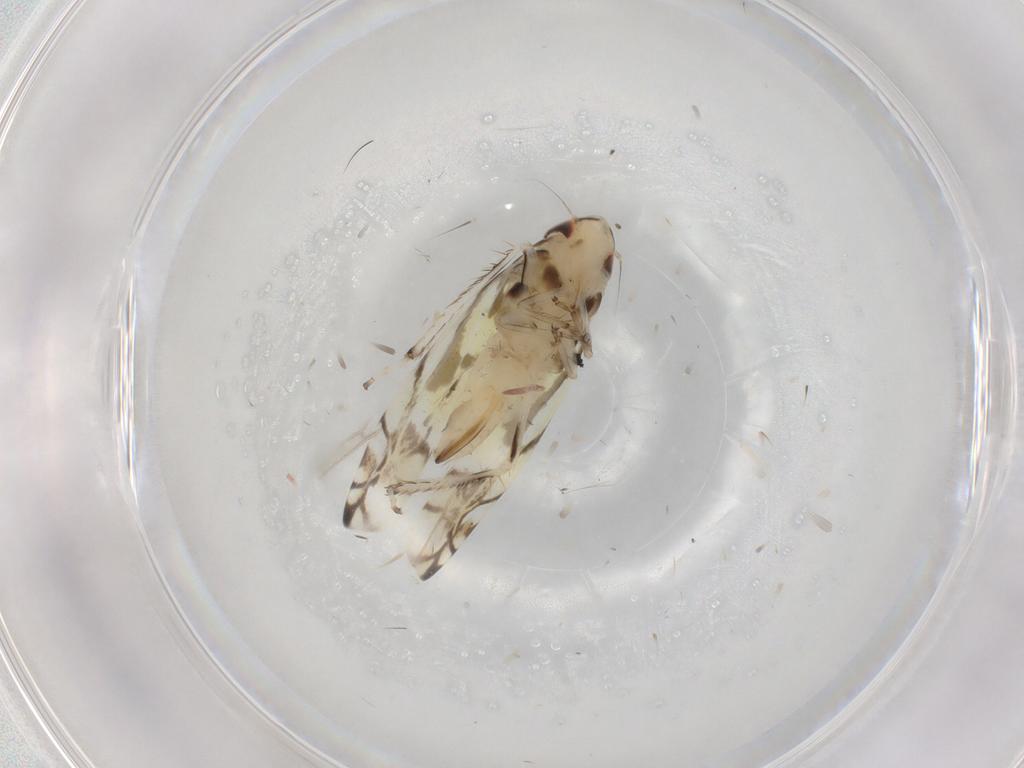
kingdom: Animalia
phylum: Arthropoda
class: Insecta
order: Hemiptera
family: Cicadellidae
